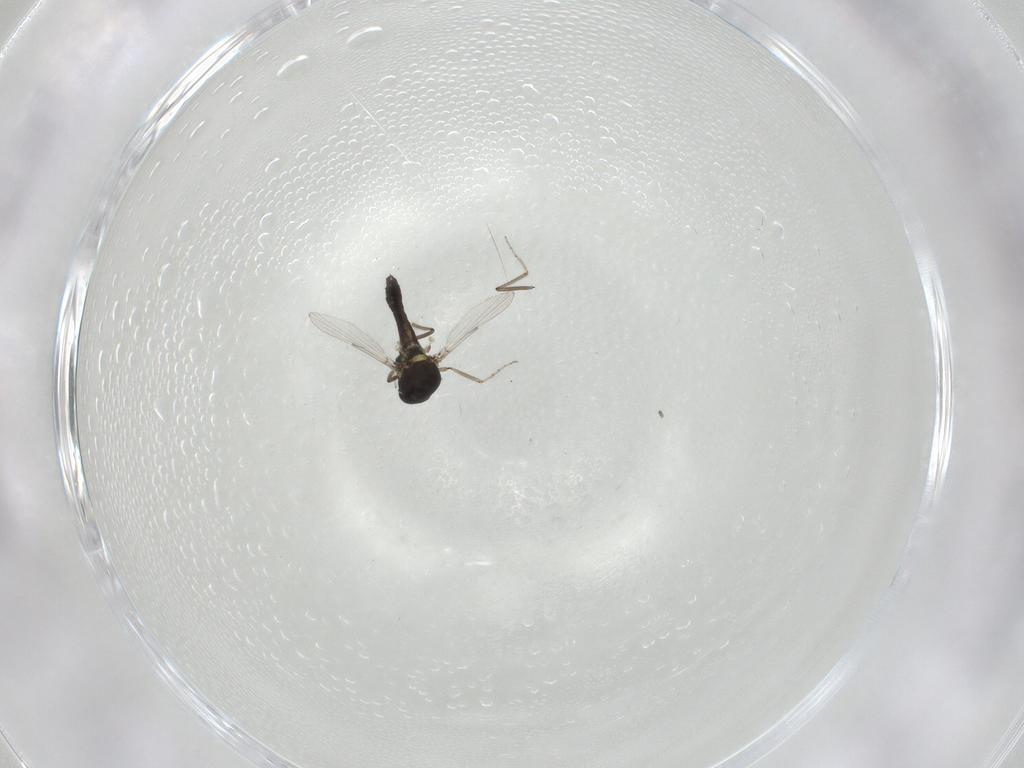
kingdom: Animalia
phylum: Arthropoda
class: Insecta
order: Diptera
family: Ceratopogonidae
